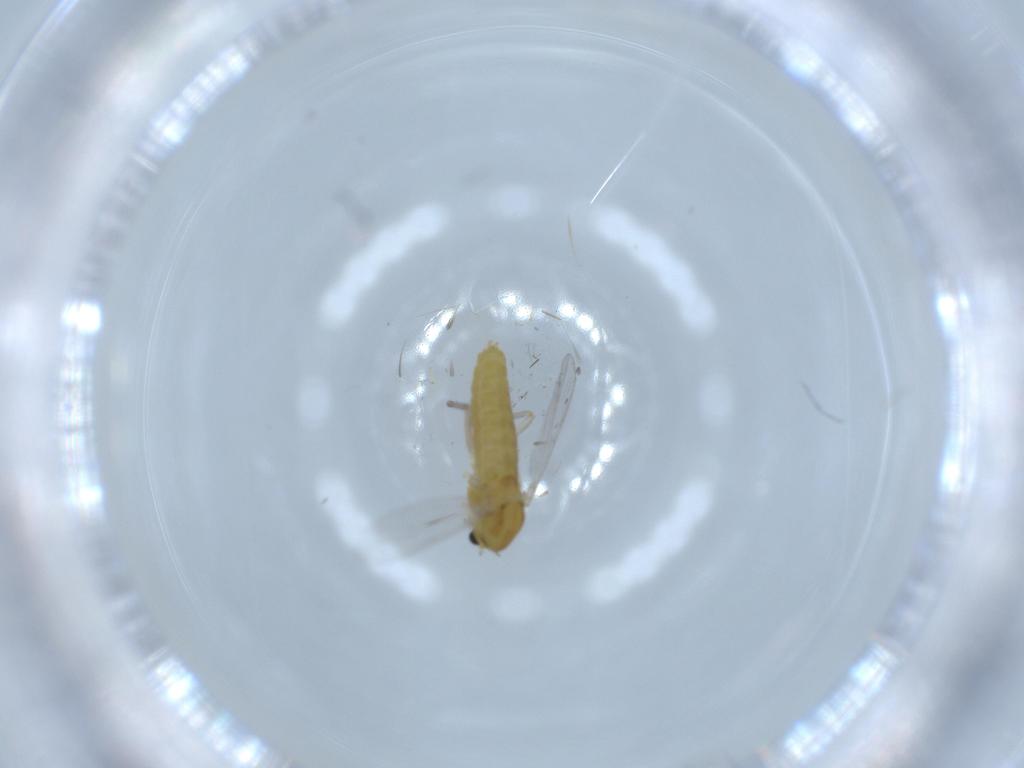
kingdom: Animalia
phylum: Arthropoda
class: Insecta
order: Diptera
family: Chironomidae
